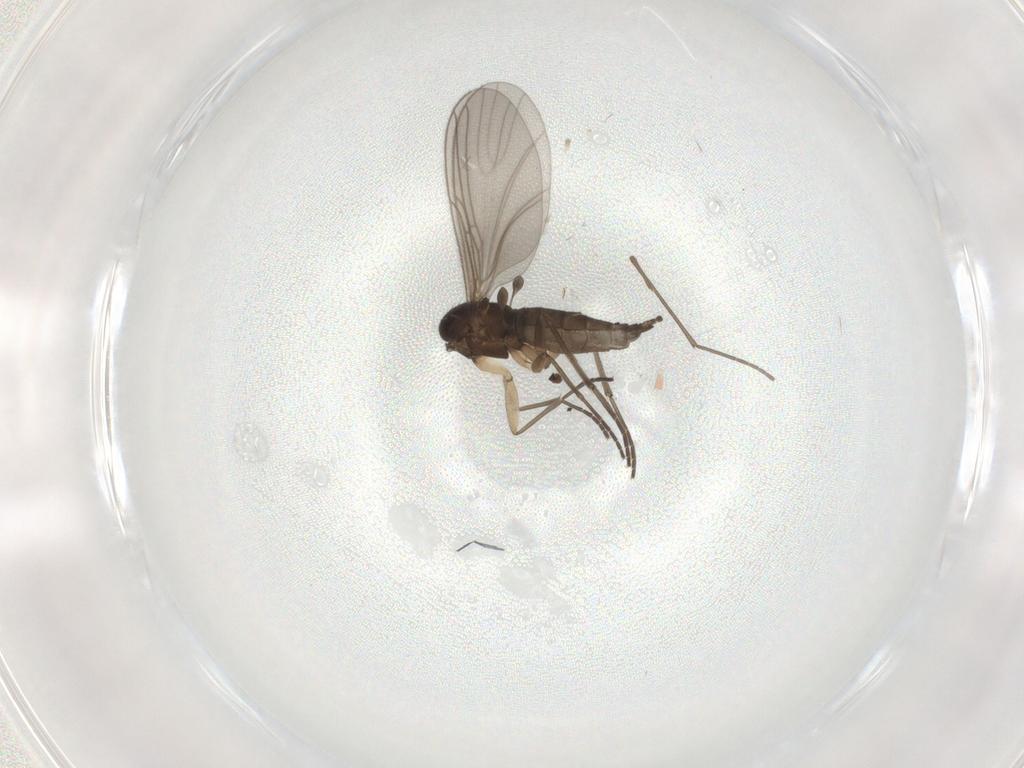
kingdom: Animalia
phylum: Arthropoda
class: Insecta
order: Diptera
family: Sciaridae
